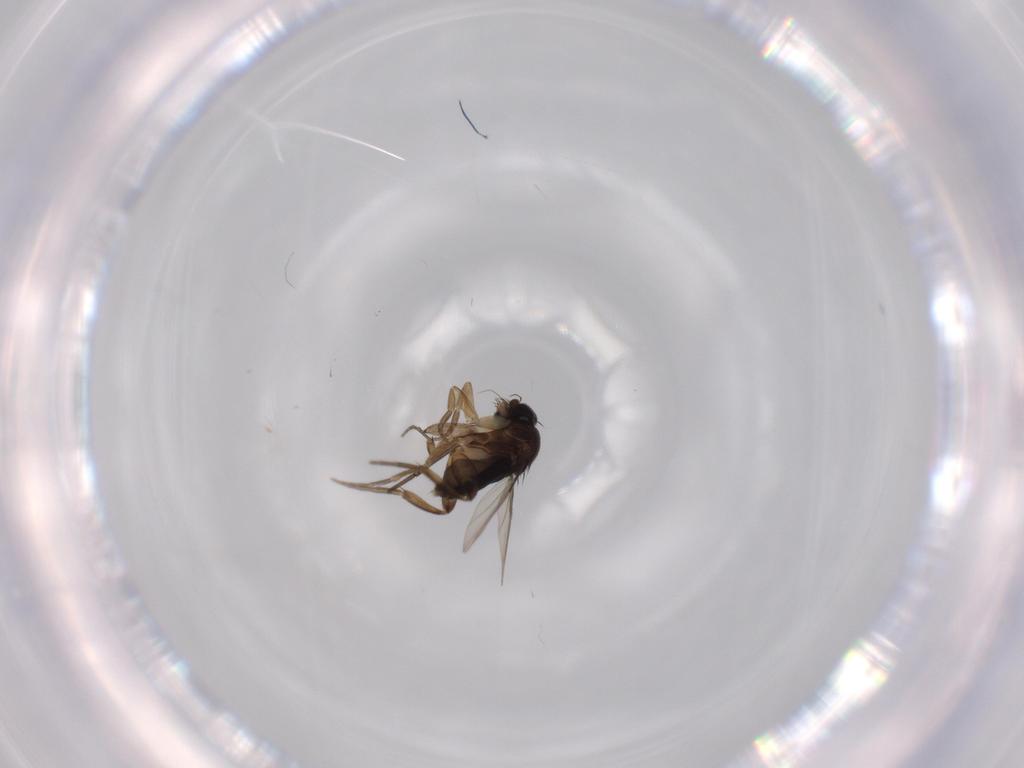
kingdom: Animalia
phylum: Arthropoda
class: Insecta
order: Diptera
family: Phoridae
